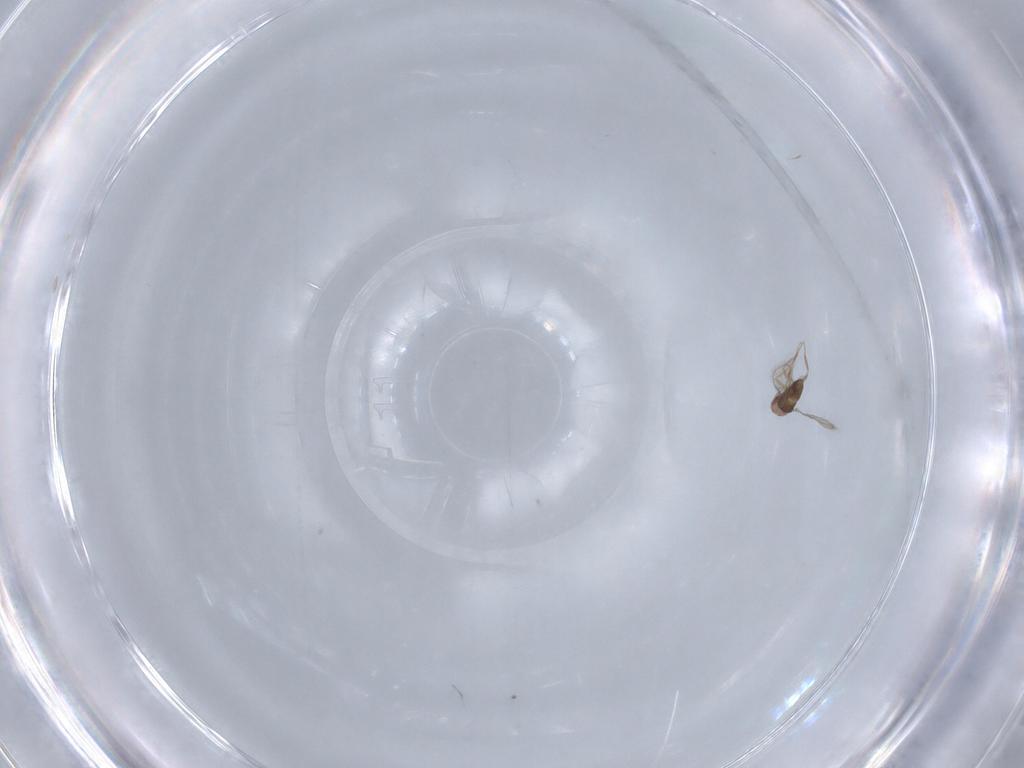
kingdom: Animalia
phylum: Arthropoda
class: Insecta
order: Hymenoptera
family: Trichogrammatidae
